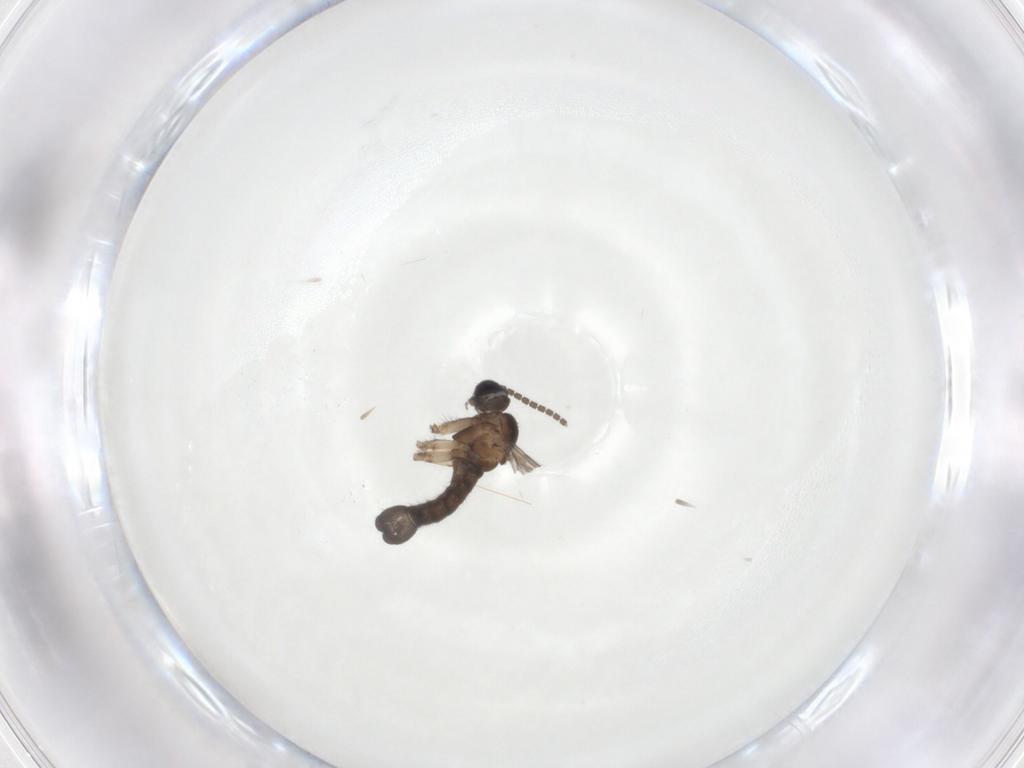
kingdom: Animalia
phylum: Arthropoda
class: Insecta
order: Diptera
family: Sciaridae
